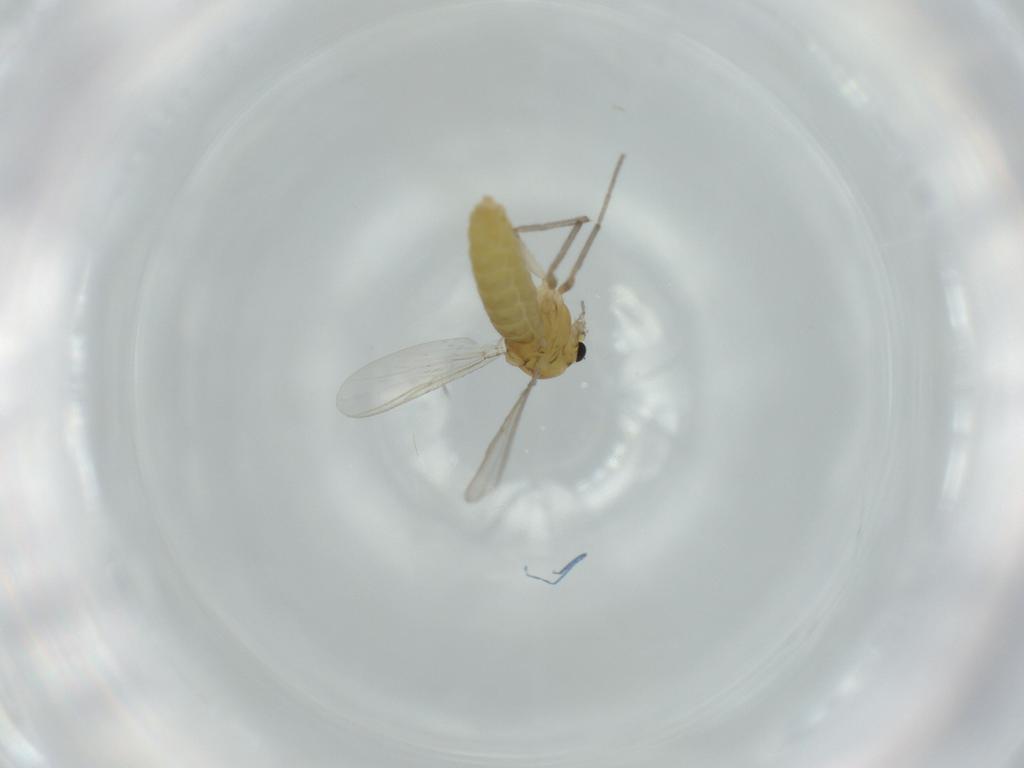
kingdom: Animalia
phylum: Arthropoda
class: Insecta
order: Diptera
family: Chironomidae
